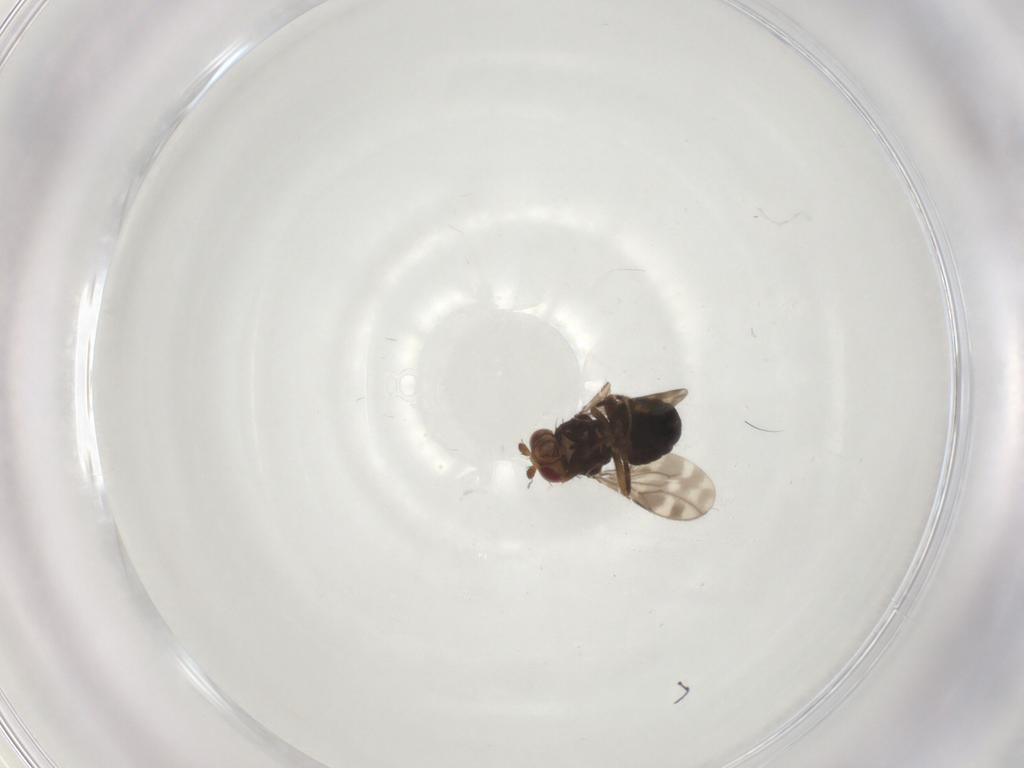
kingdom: Animalia
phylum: Arthropoda
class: Insecta
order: Diptera
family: Sphaeroceridae
